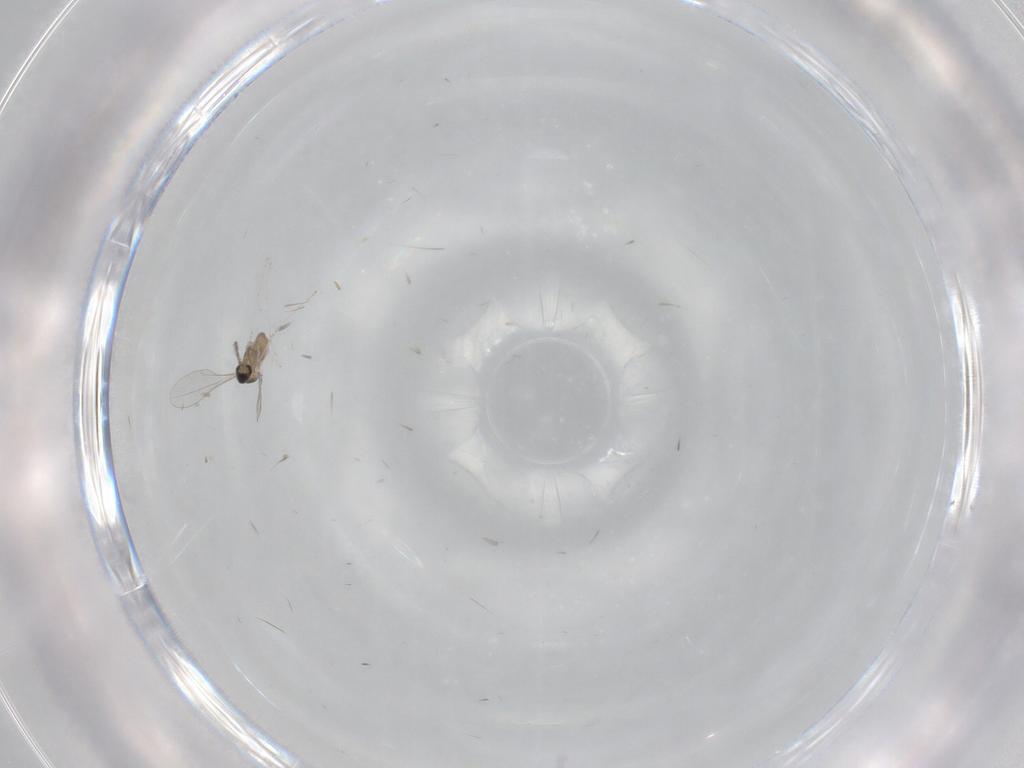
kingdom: Animalia
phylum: Arthropoda
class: Insecta
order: Diptera
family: Cecidomyiidae
